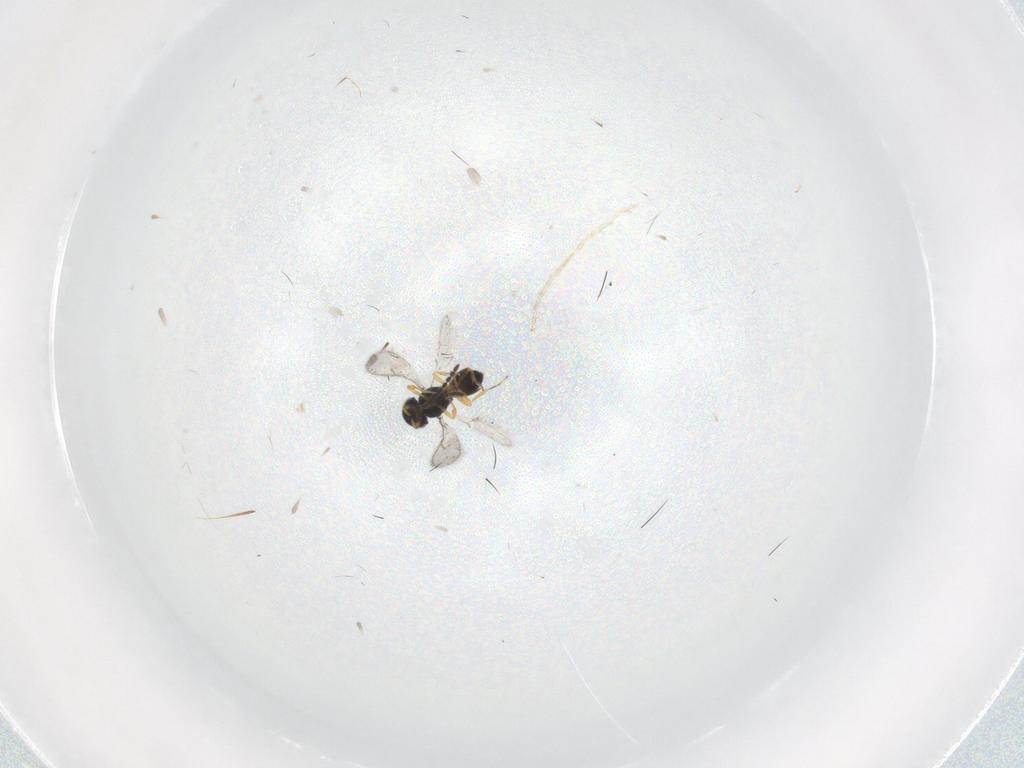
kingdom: Animalia
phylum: Arthropoda
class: Insecta
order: Hymenoptera
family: Scelionidae
